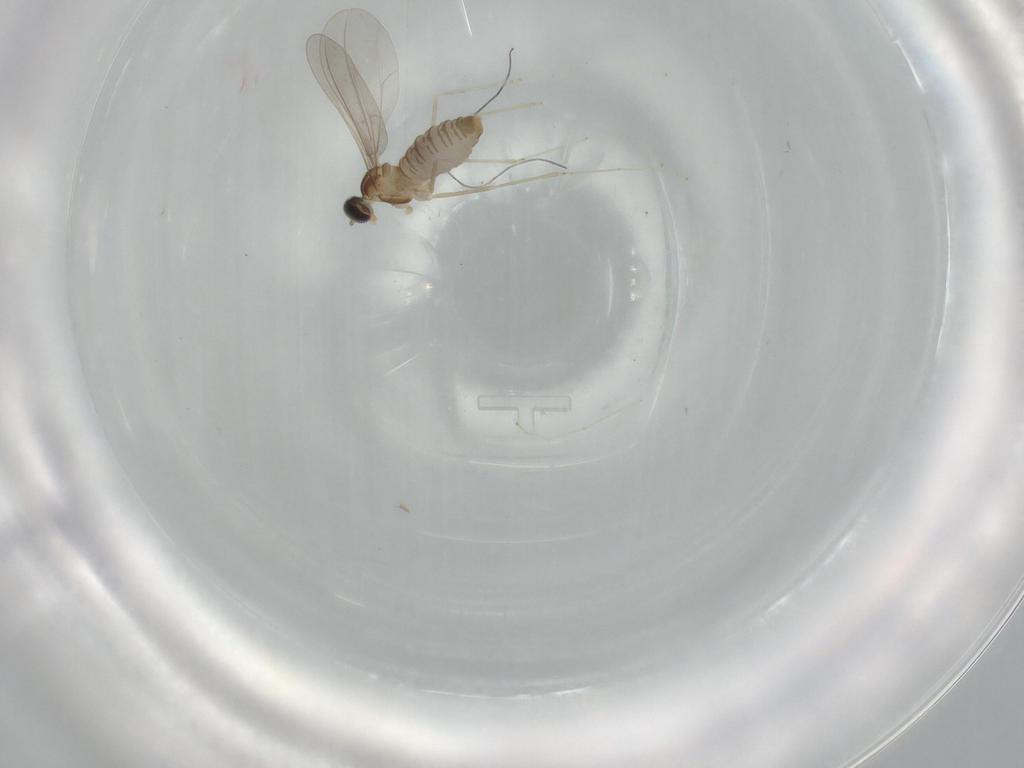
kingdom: Animalia
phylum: Arthropoda
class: Insecta
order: Diptera
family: Cecidomyiidae
